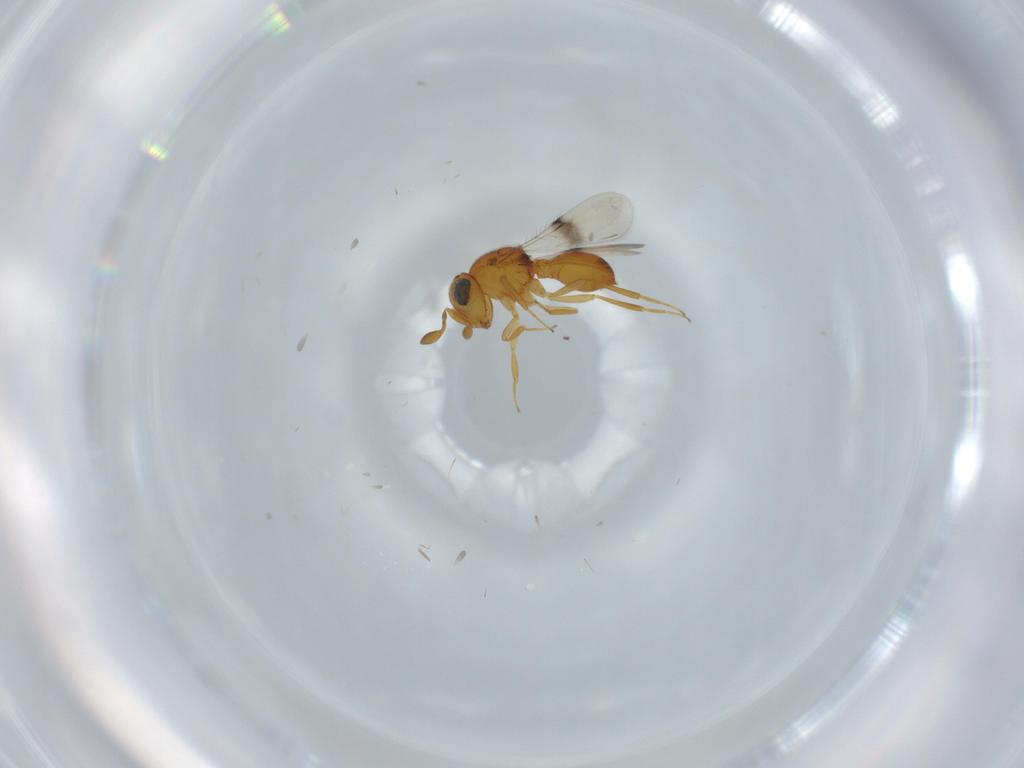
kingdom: Animalia
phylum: Arthropoda
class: Insecta
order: Hymenoptera
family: Scelionidae
